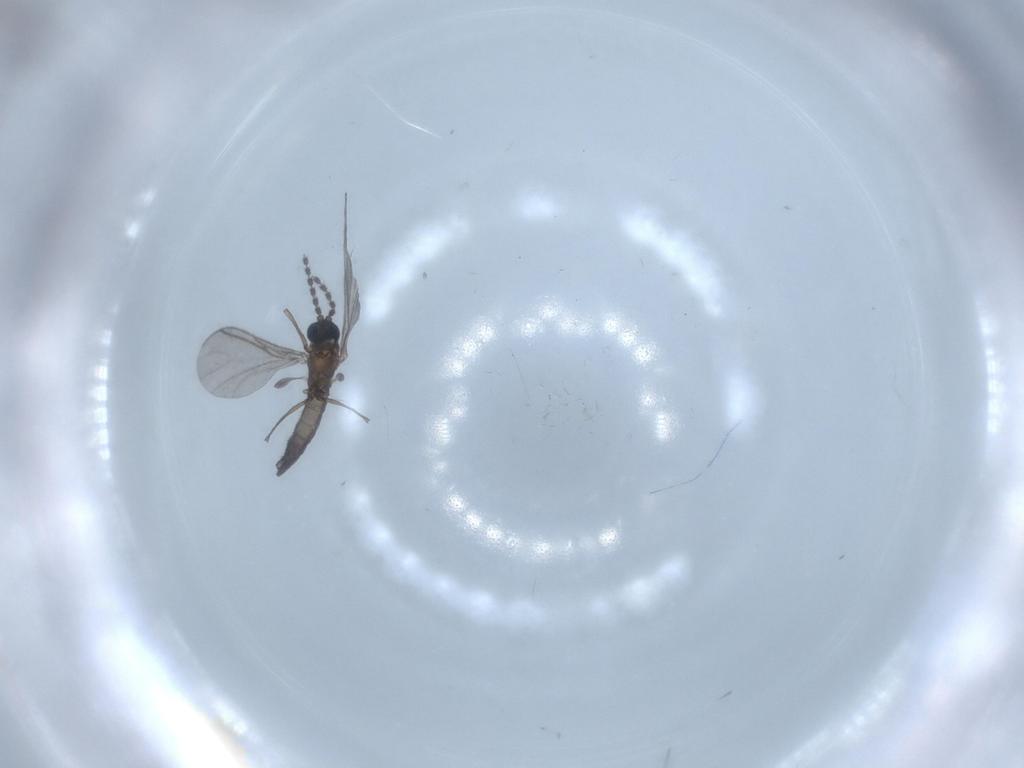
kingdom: Animalia
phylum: Arthropoda
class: Insecta
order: Diptera
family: Chironomidae
